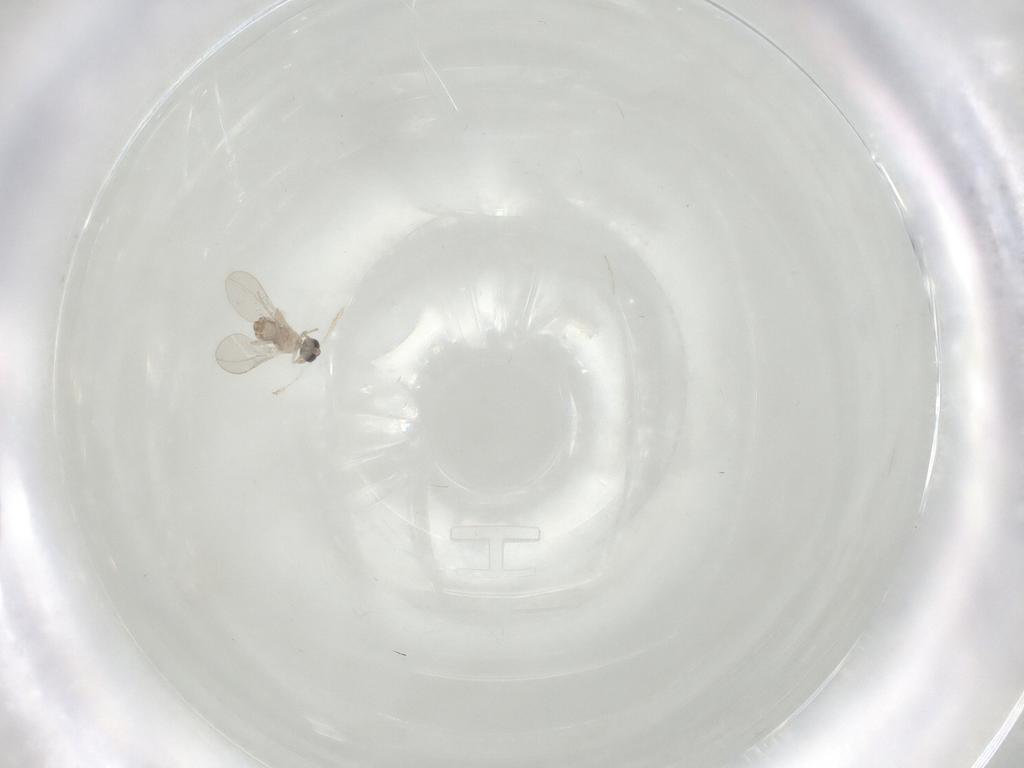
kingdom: Animalia
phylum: Arthropoda
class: Insecta
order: Diptera
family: Cecidomyiidae
